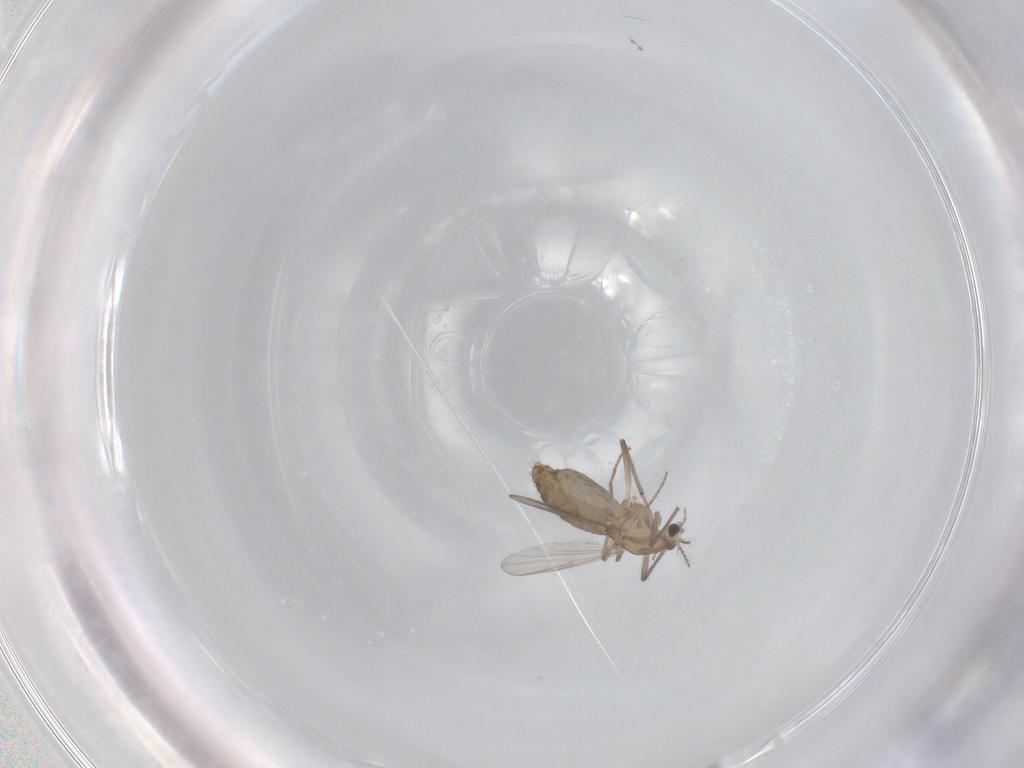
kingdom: Animalia
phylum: Arthropoda
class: Insecta
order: Diptera
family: Chironomidae
